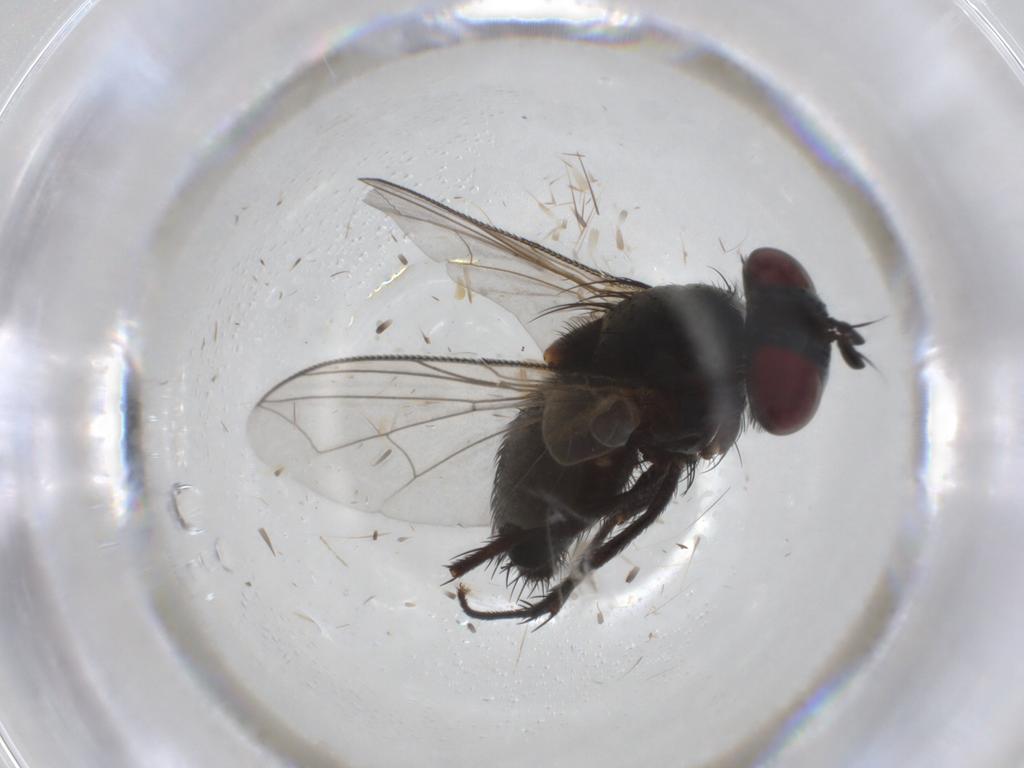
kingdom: Animalia
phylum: Arthropoda
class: Insecta
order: Diptera
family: Tachinidae
